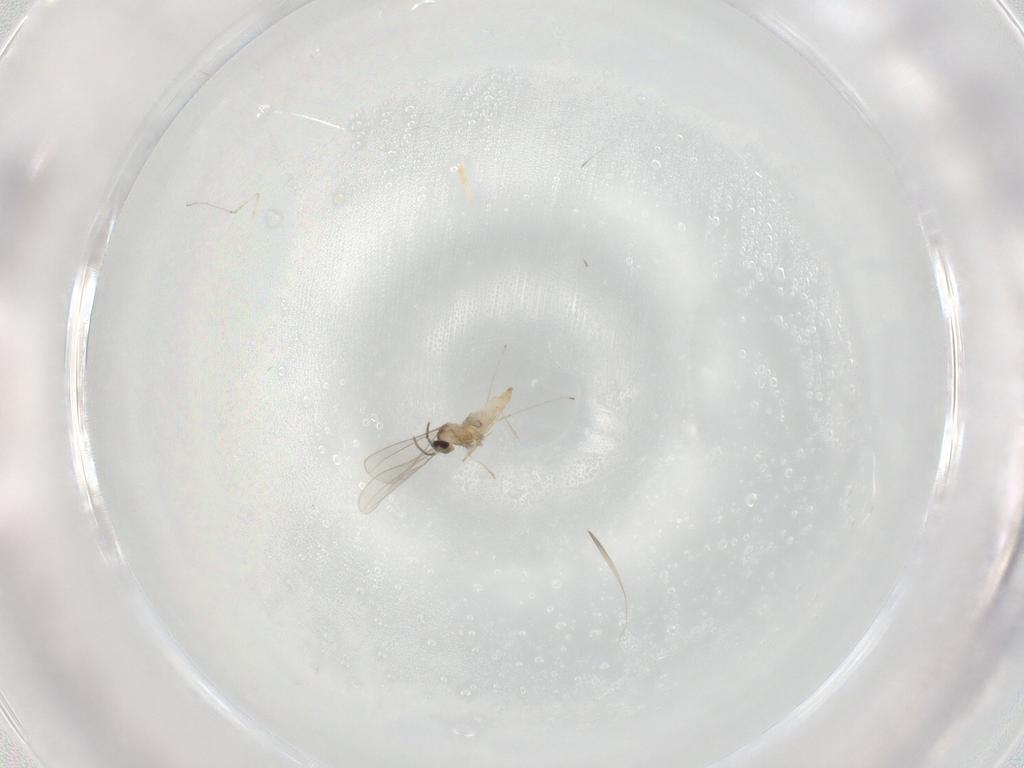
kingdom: Animalia
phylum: Arthropoda
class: Insecta
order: Diptera
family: Cecidomyiidae
